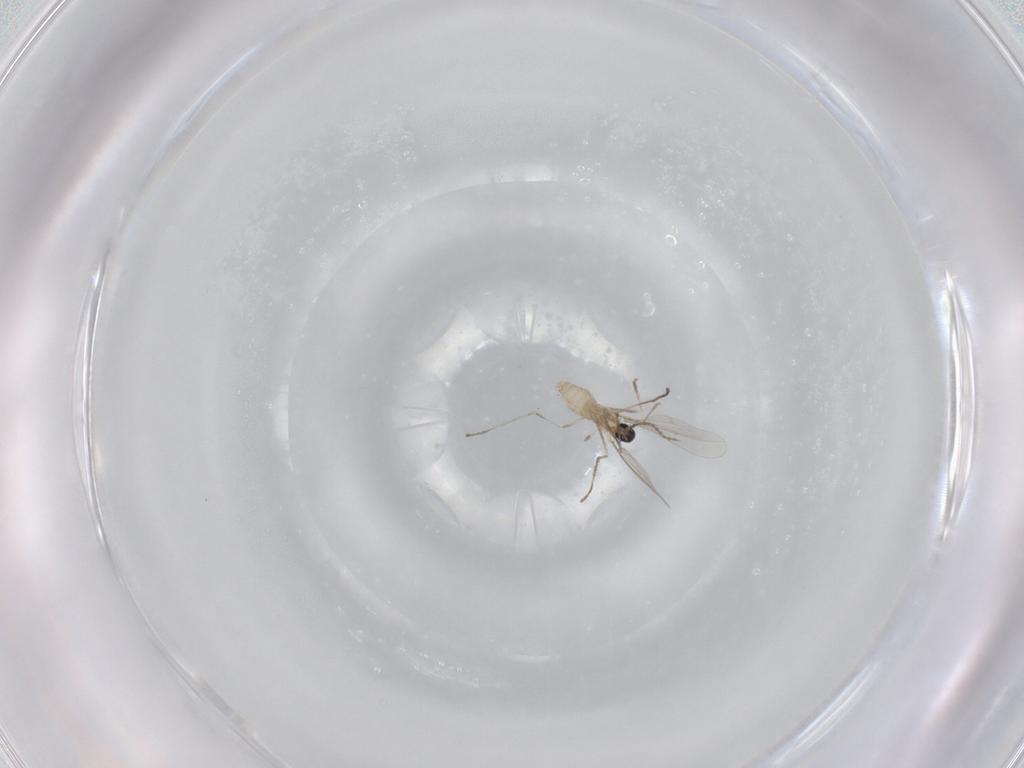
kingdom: Animalia
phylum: Arthropoda
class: Insecta
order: Diptera
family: Cecidomyiidae
